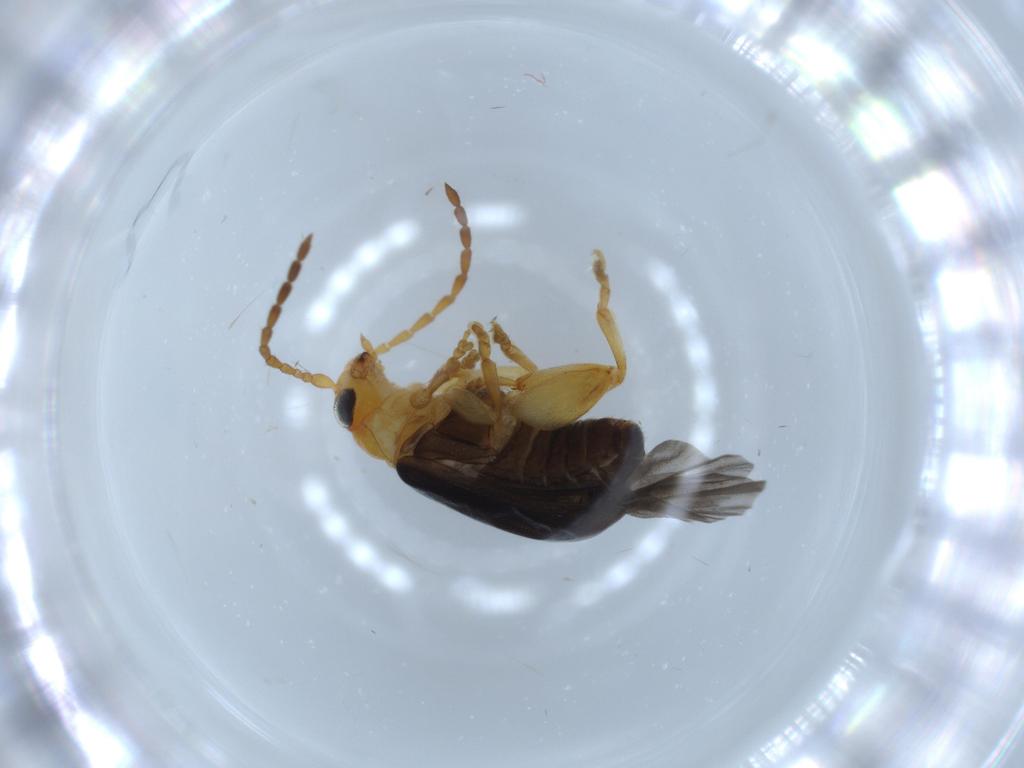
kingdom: Animalia
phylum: Arthropoda
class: Insecta
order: Coleoptera
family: Chrysomelidae
